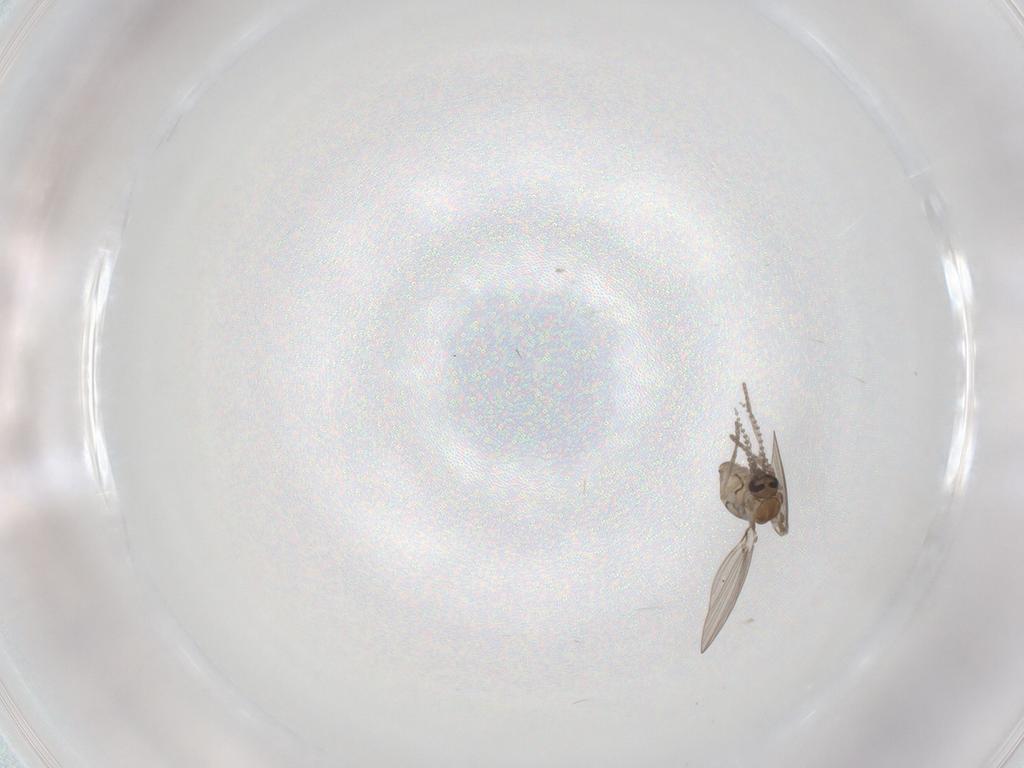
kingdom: Animalia
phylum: Arthropoda
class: Insecta
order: Diptera
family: Psychodidae
